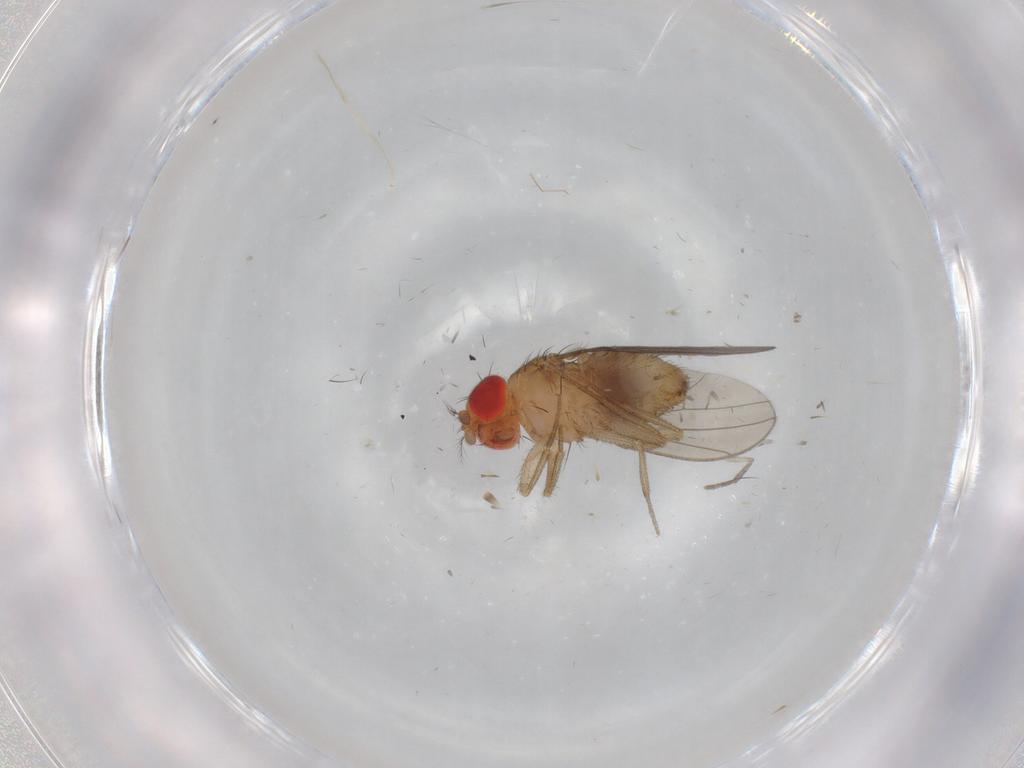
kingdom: Animalia
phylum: Arthropoda
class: Insecta
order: Diptera
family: Drosophilidae
